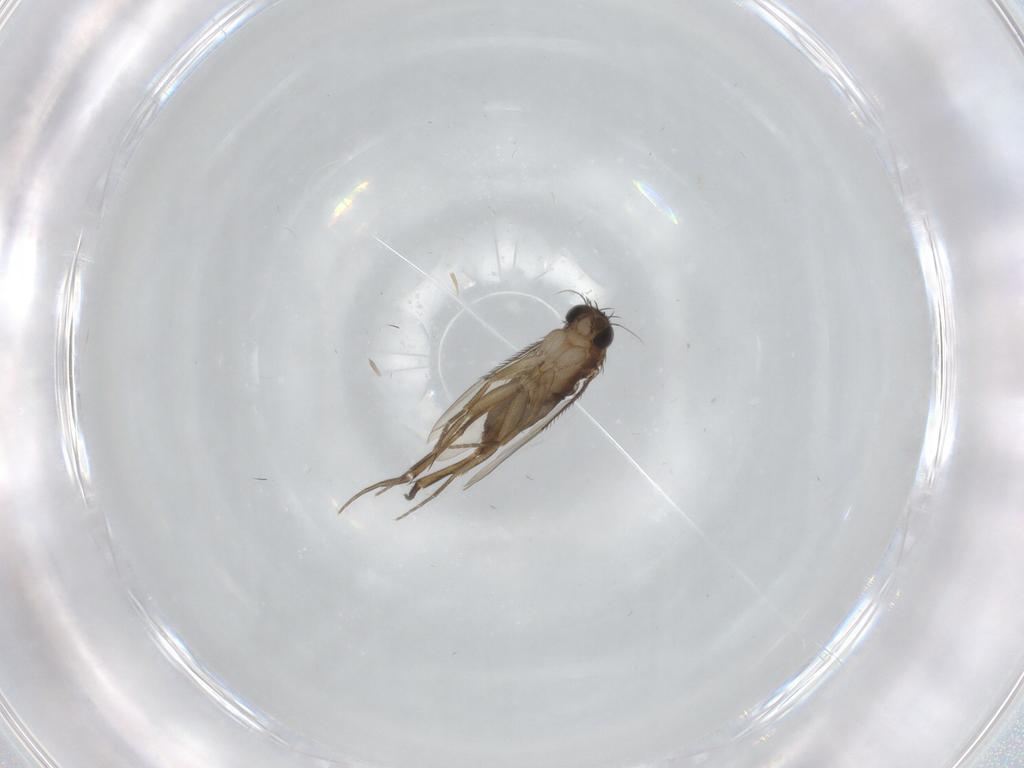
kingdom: Animalia
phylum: Arthropoda
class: Insecta
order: Diptera
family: Phoridae
